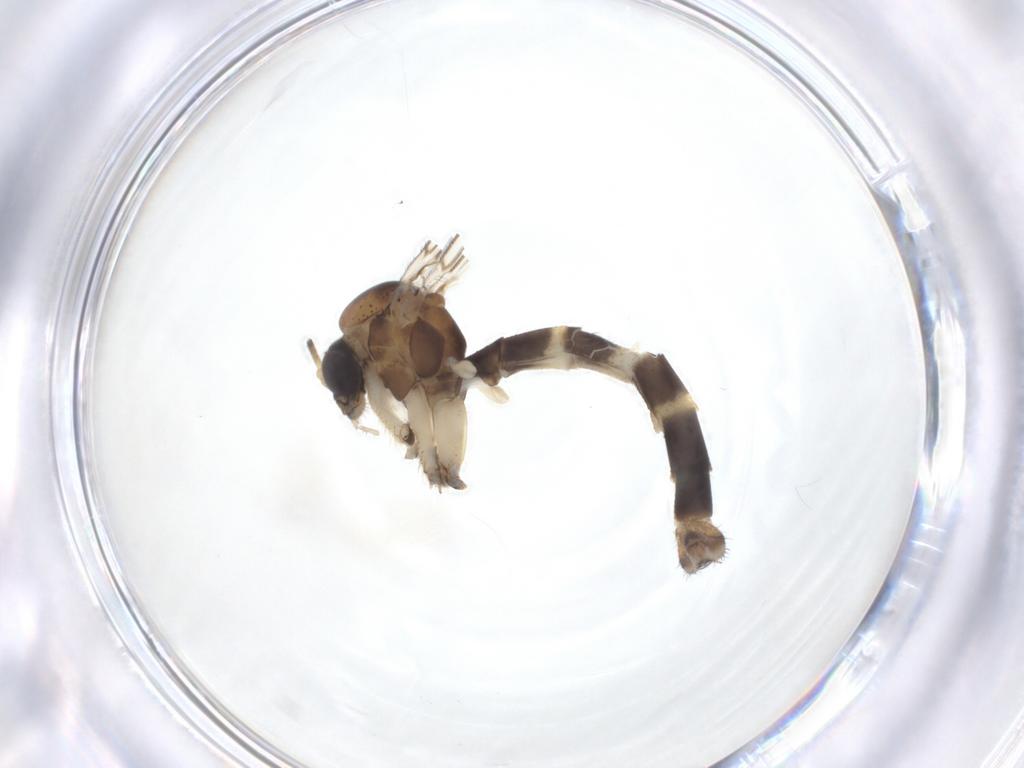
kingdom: Animalia
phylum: Arthropoda
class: Insecta
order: Diptera
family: Mycetophilidae
